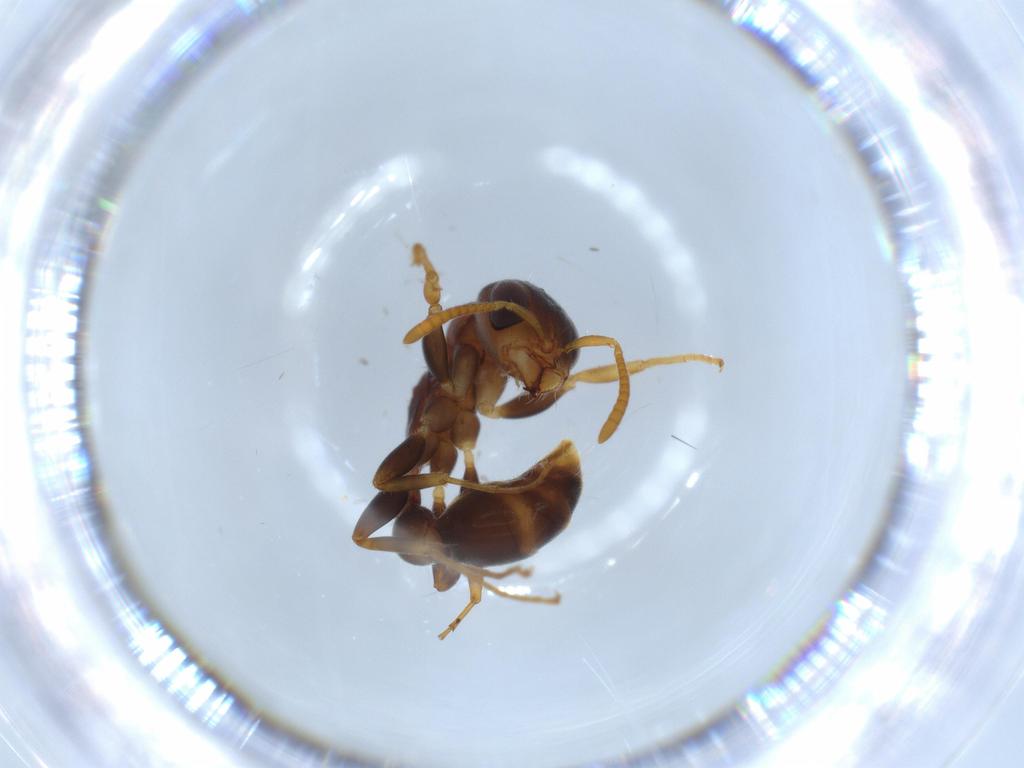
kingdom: Animalia
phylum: Arthropoda
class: Insecta
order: Hymenoptera
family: Formicidae
